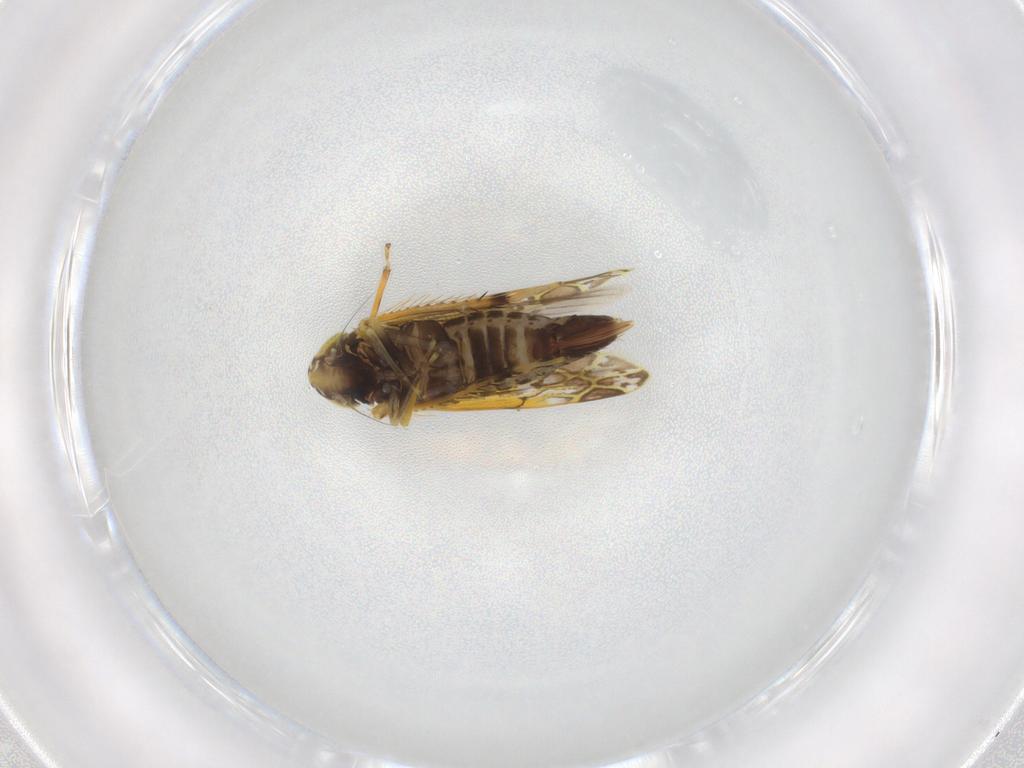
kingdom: Animalia
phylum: Arthropoda
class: Insecta
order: Hemiptera
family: Cicadellidae
